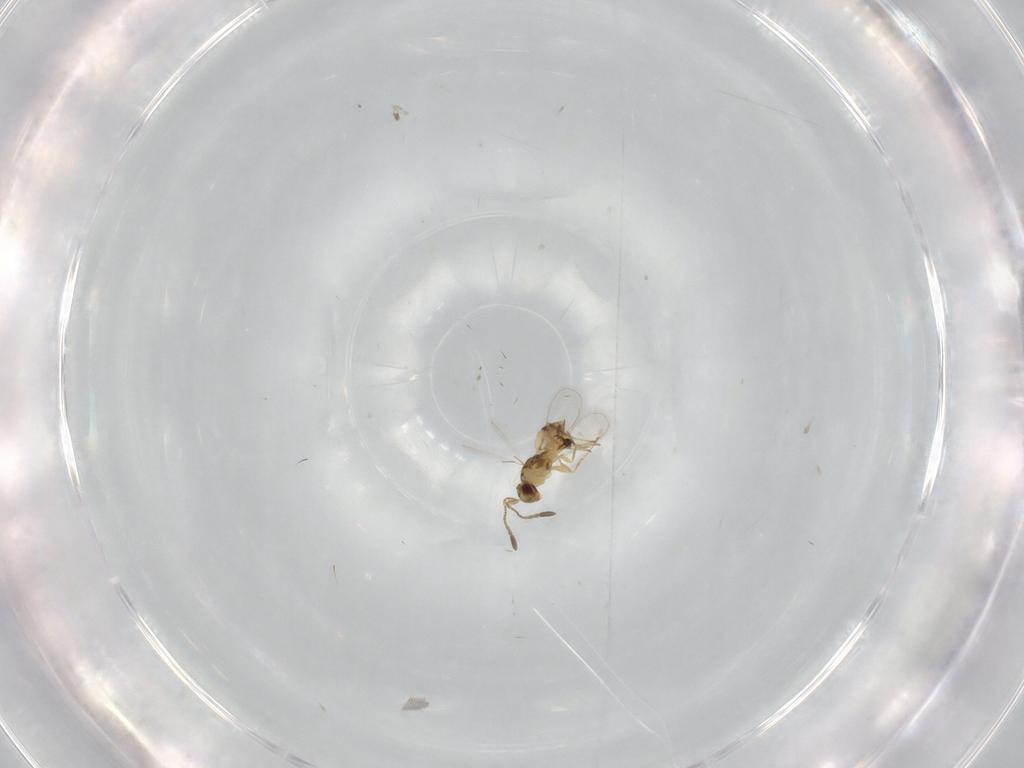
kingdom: Animalia
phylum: Arthropoda
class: Insecta
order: Hymenoptera
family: Mymaridae
